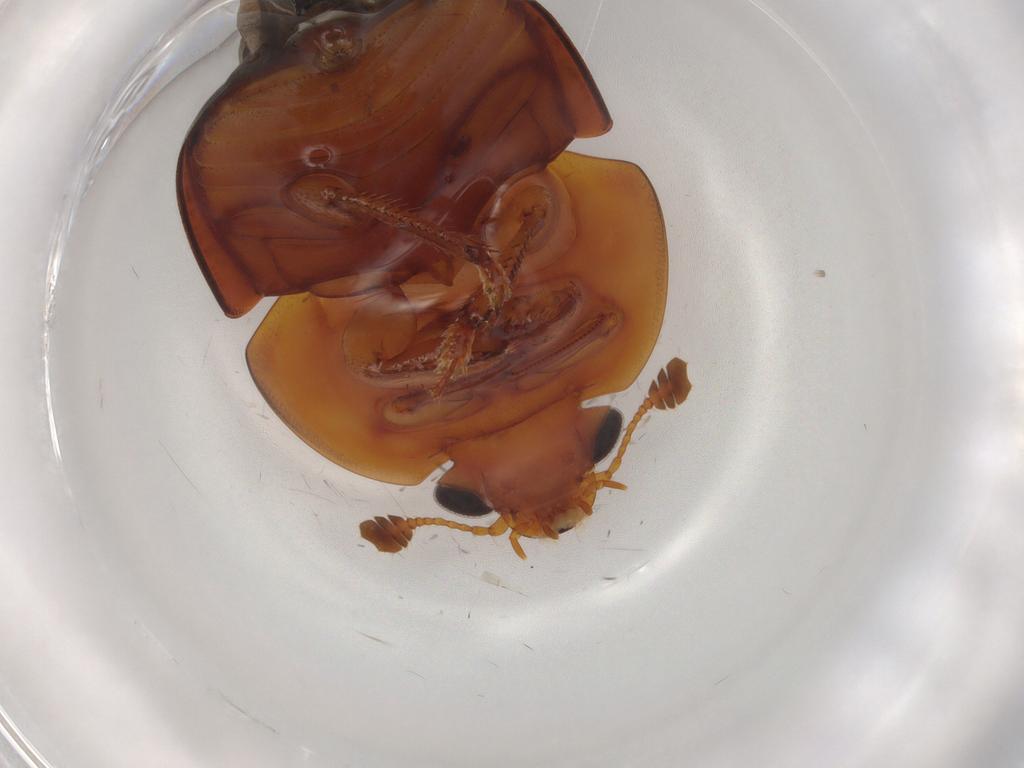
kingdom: Animalia
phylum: Arthropoda
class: Insecta
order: Coleoptera
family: Nitidulidae
